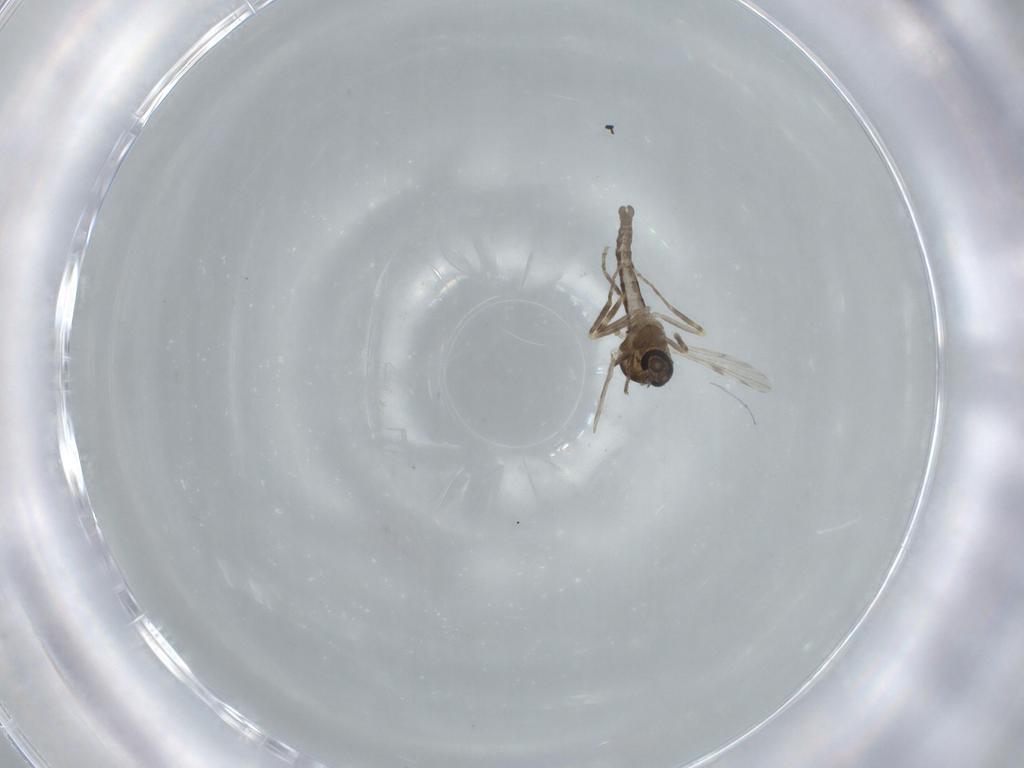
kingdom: Animalia
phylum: Arthropoda
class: Insecta
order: Diptera
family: Ceratopogonidae
